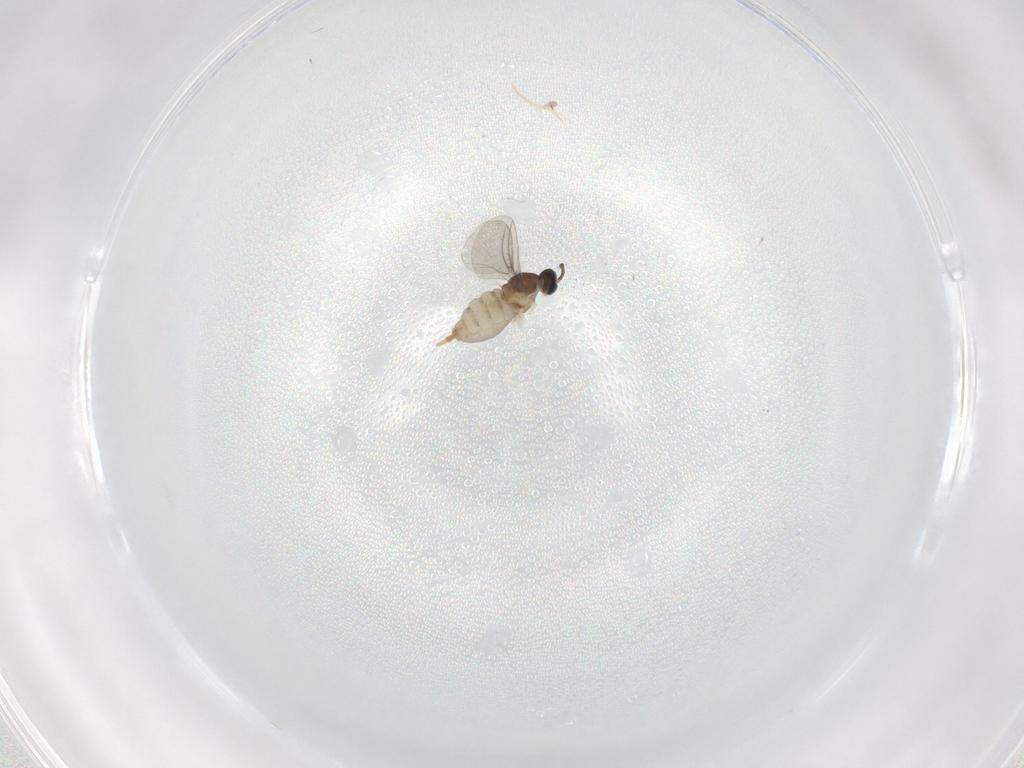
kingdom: Animalia
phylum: Arthropoda
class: Insecta
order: Diptera
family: Cecidomyiidae
